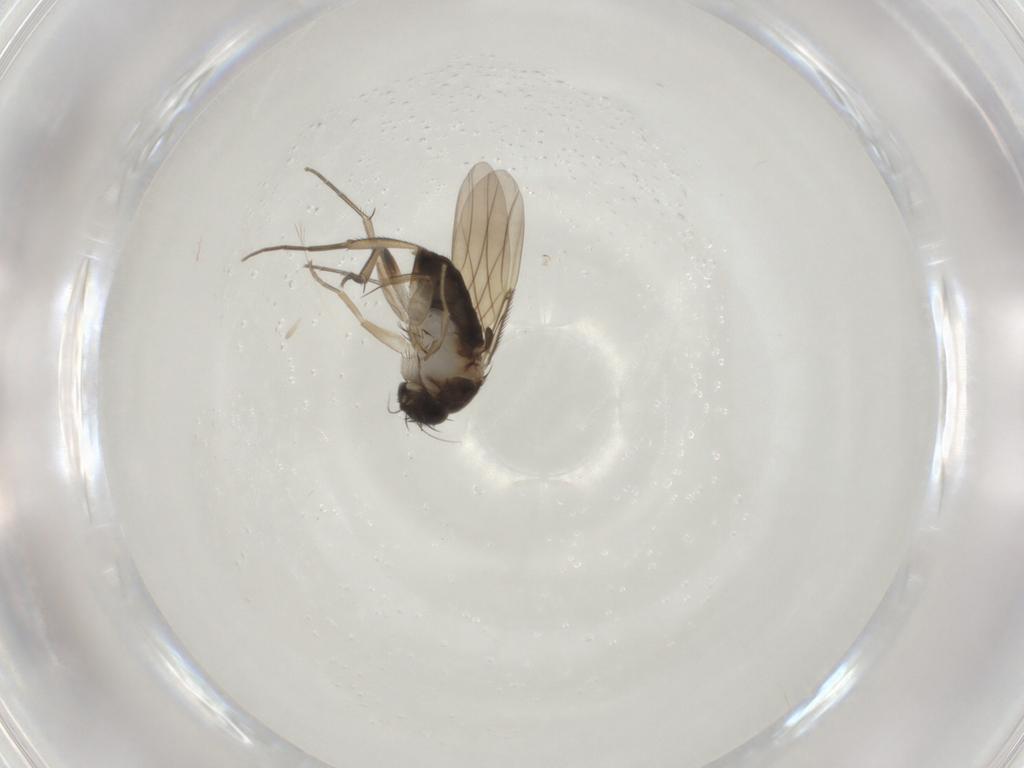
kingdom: Animalia
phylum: Arthropoda
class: Insecta
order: Diptera
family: Phoridae
